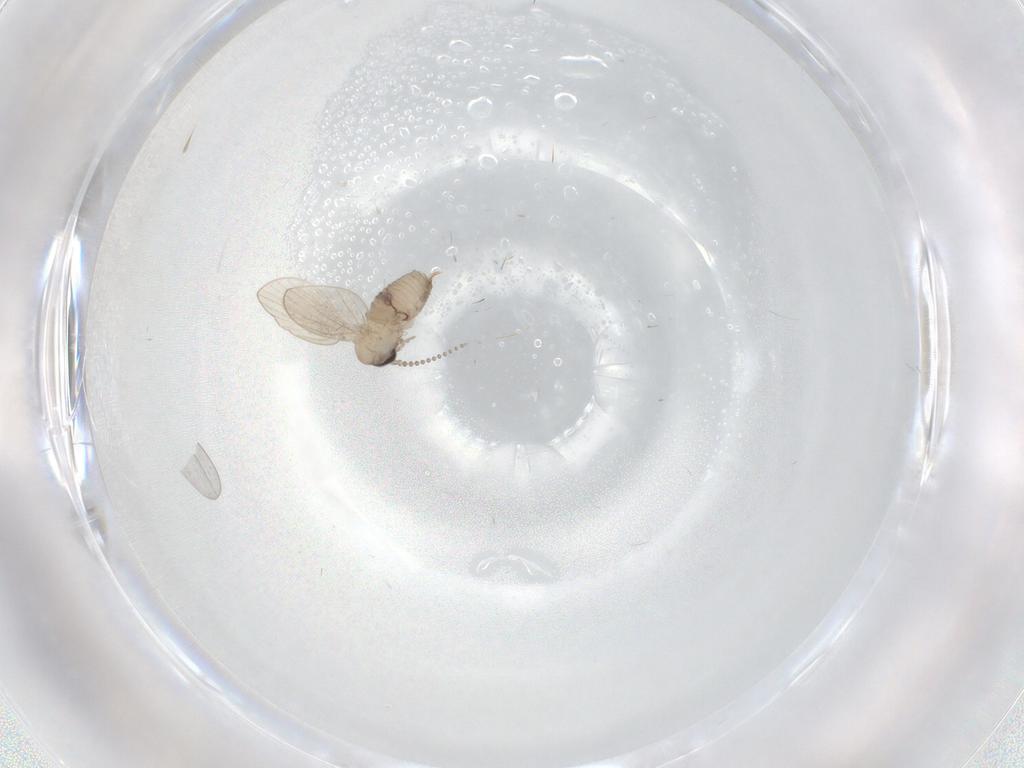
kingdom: Animalia
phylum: Arthropoda
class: Insecta
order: Diptera
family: Psychodidae
